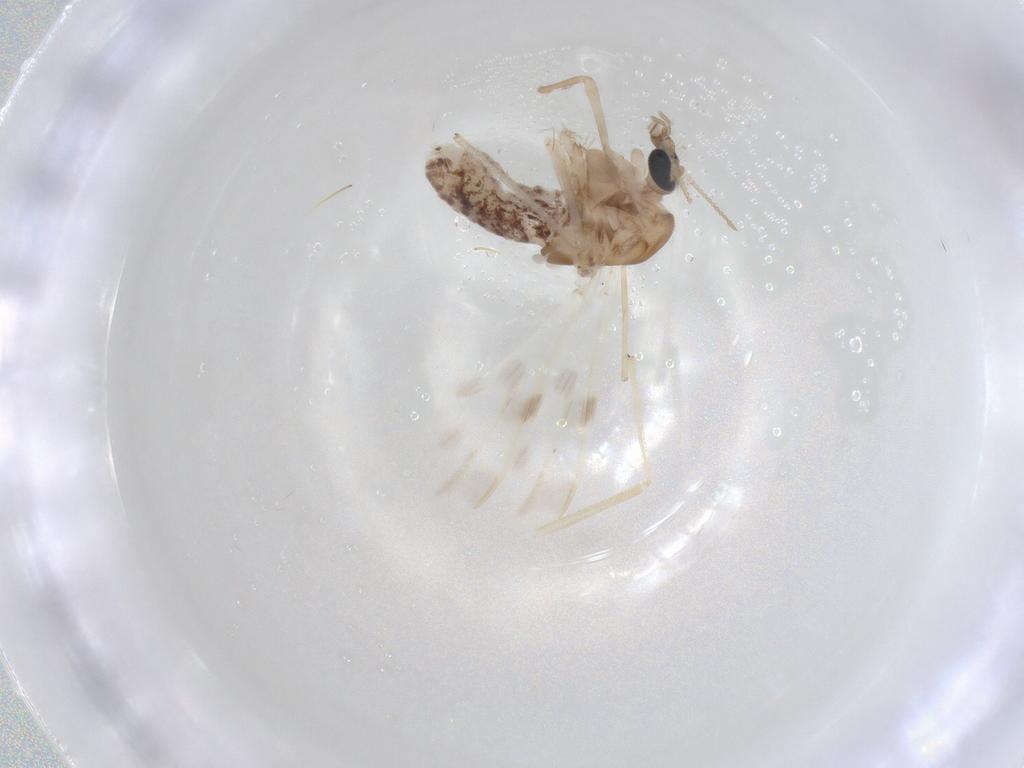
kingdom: Animalia
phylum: Arthropoda
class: Insecta
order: Diptera
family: Chironomidae
